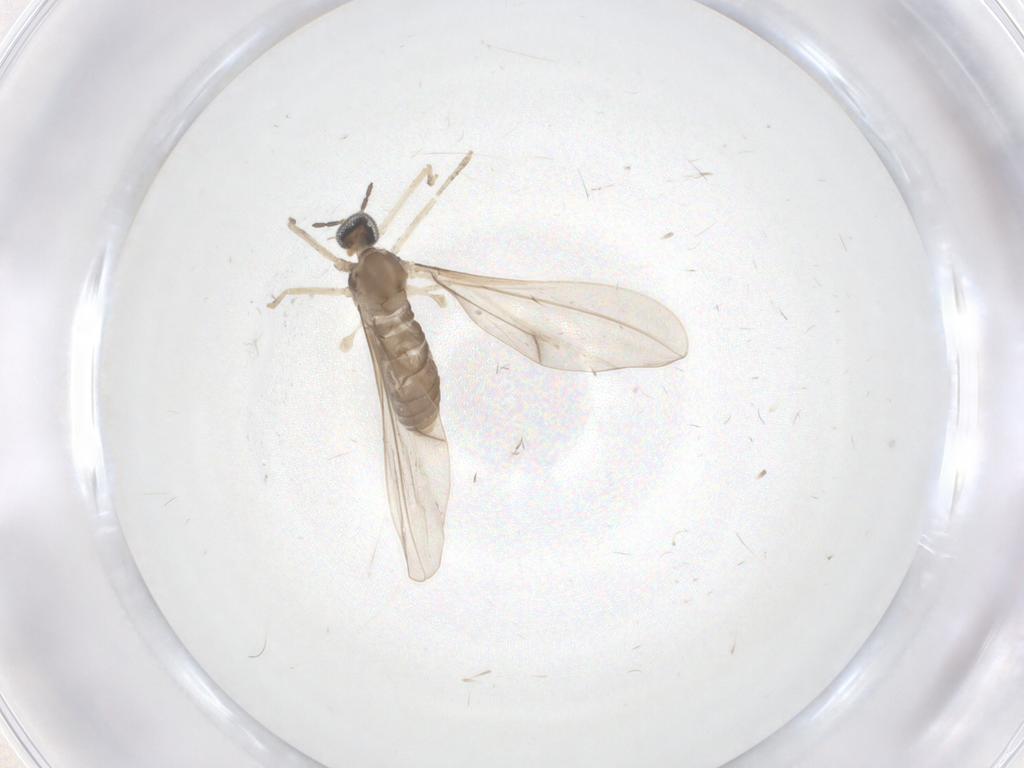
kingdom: Animalia
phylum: Arthropoda
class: Insecta
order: Diptera
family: Cecidomyiidae
